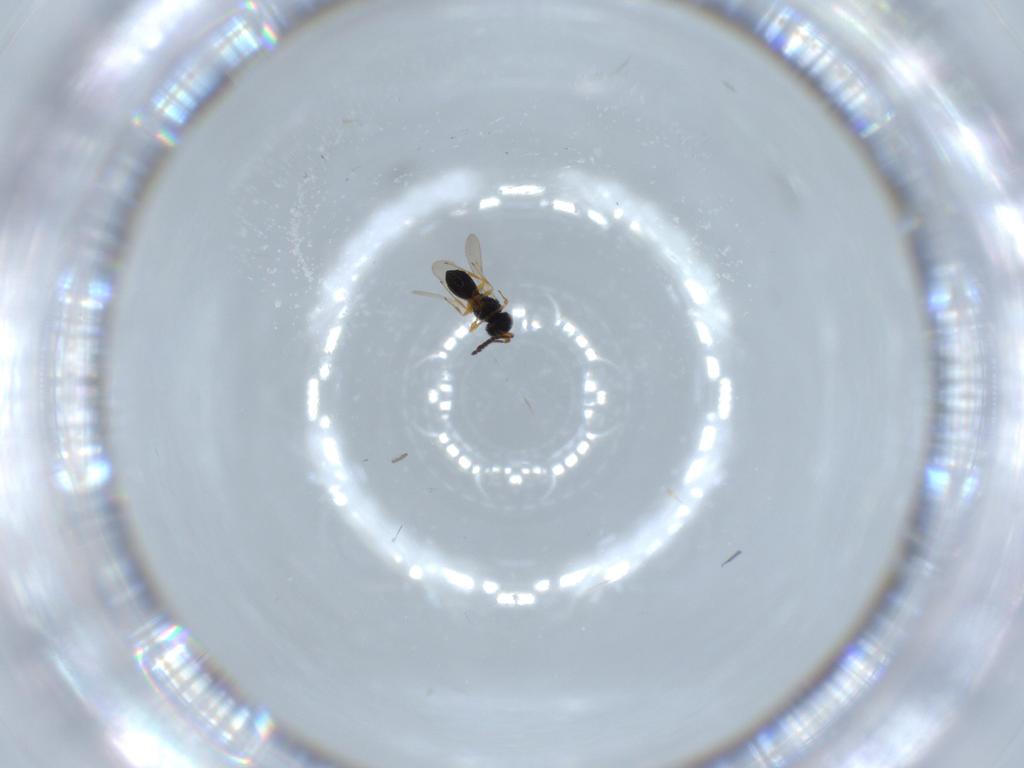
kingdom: Animalia
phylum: Arthropoda
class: Insecta
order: Hymenoptera
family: Scelionidae
